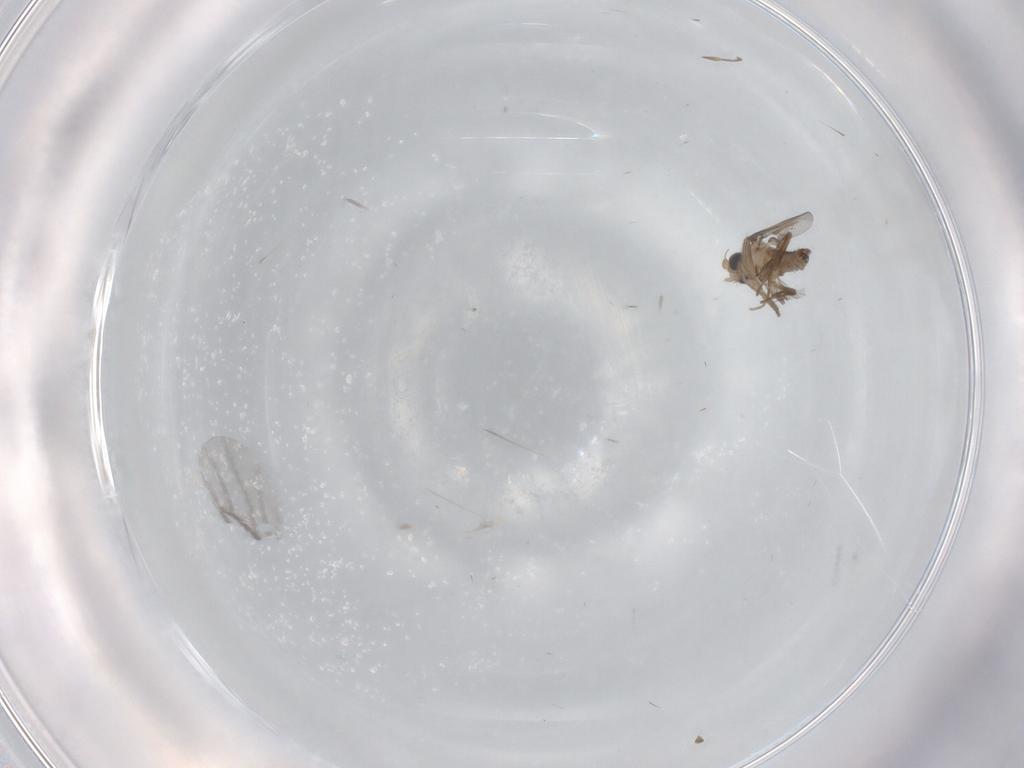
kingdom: Animalia
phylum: Arthropoda
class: Insecta
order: Diptera
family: Psychodidae
